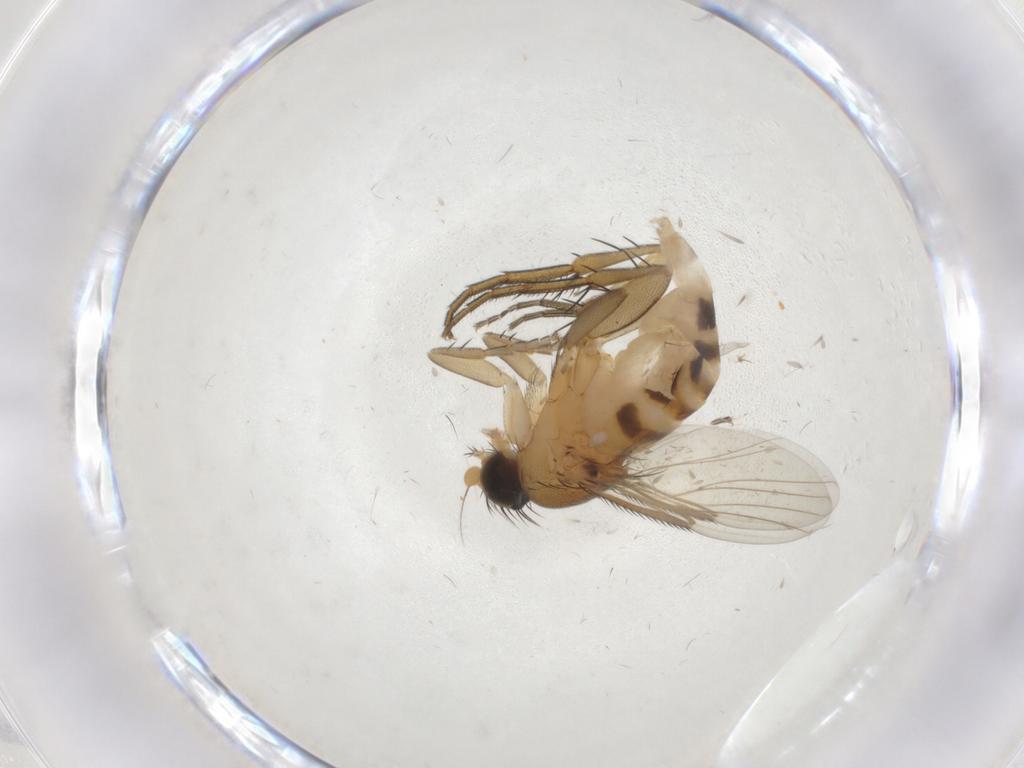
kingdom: Animalia
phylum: Arthropoda
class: Insecta
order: Diptera
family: Phoridae
